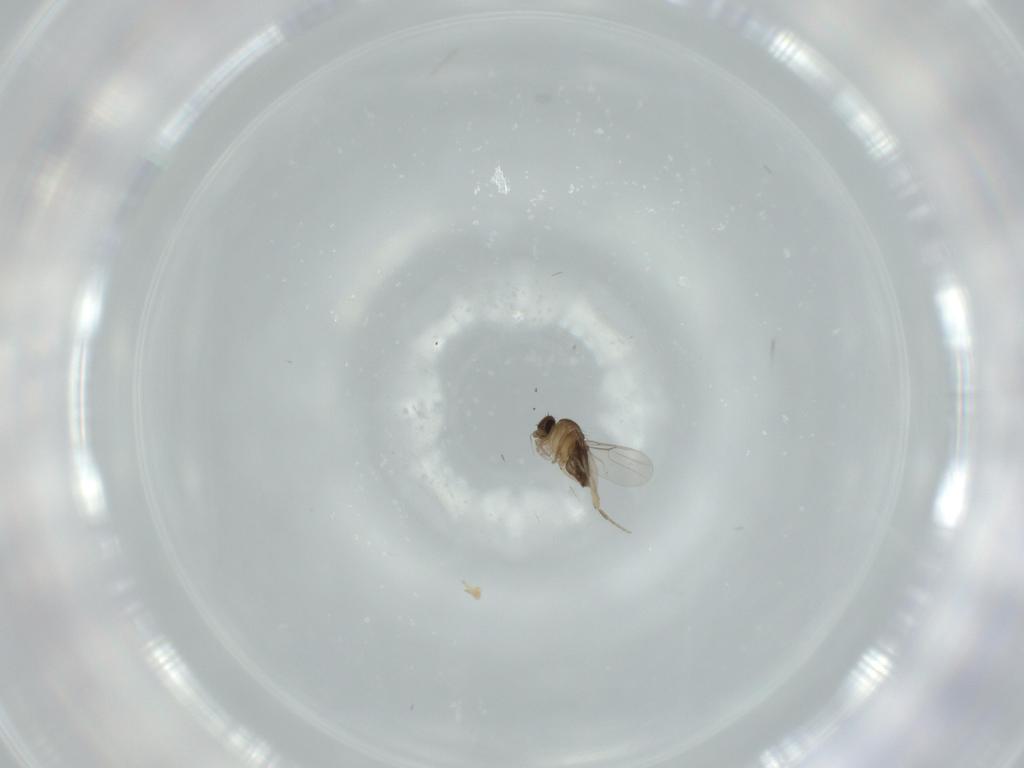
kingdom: Animalia
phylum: Arthropoda
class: Insecta
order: Diptera
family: Phoridae
